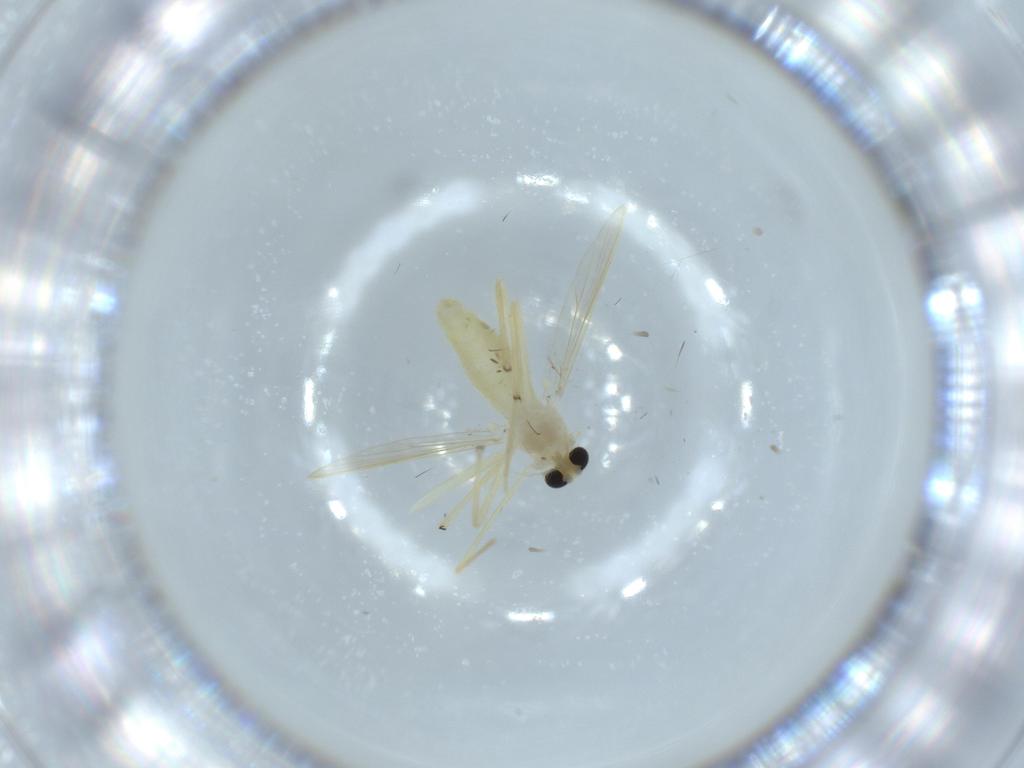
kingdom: Animalia
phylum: Arthropoda
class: Insecta
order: Diptera
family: Chironomidae
